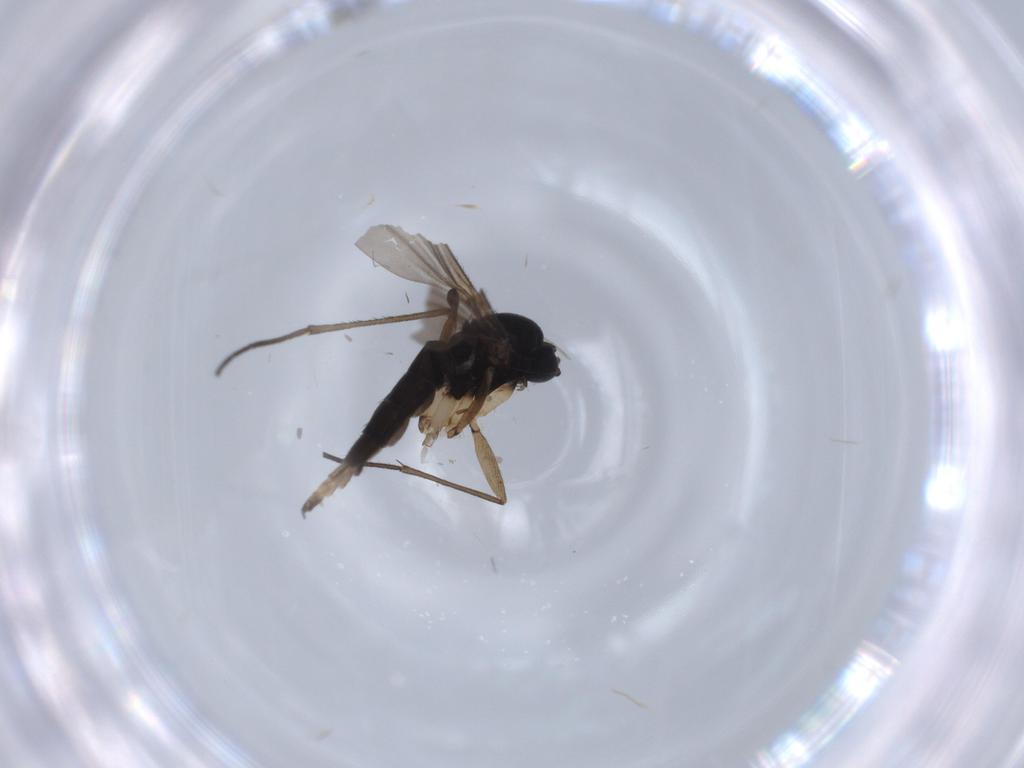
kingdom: Animalia
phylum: Arthropoda
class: Insecta
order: Diptera
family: Sciaridae
